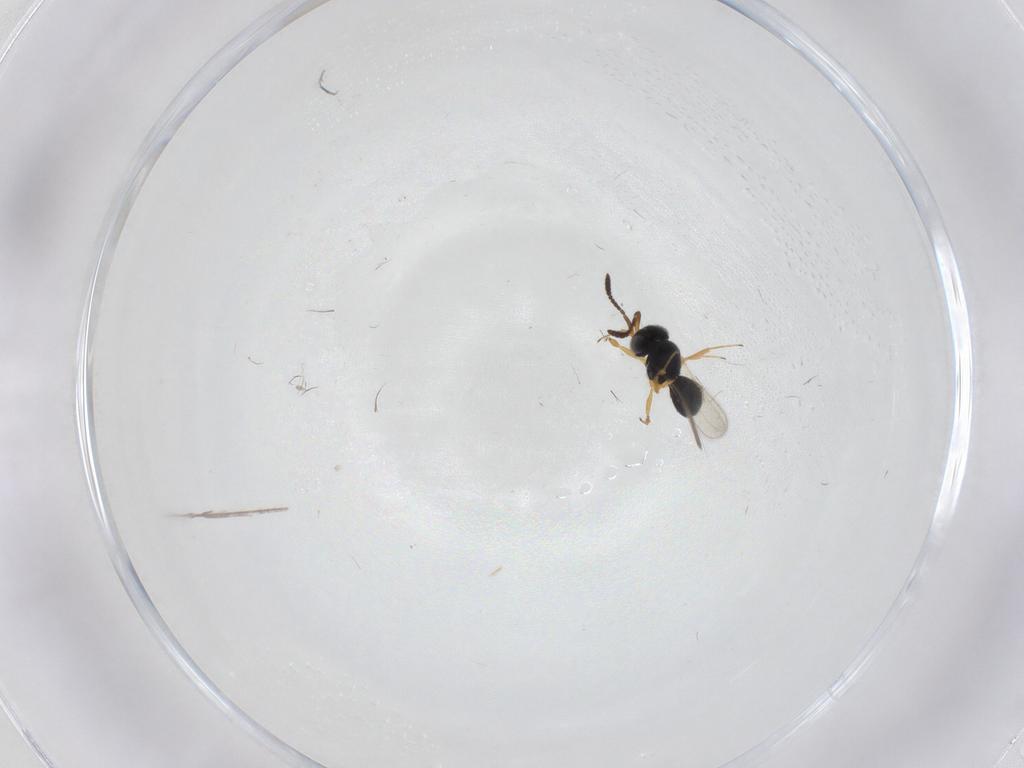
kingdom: Animalia
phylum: Arthropoda
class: Insecta
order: Hymenoptera
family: Scelionidae
